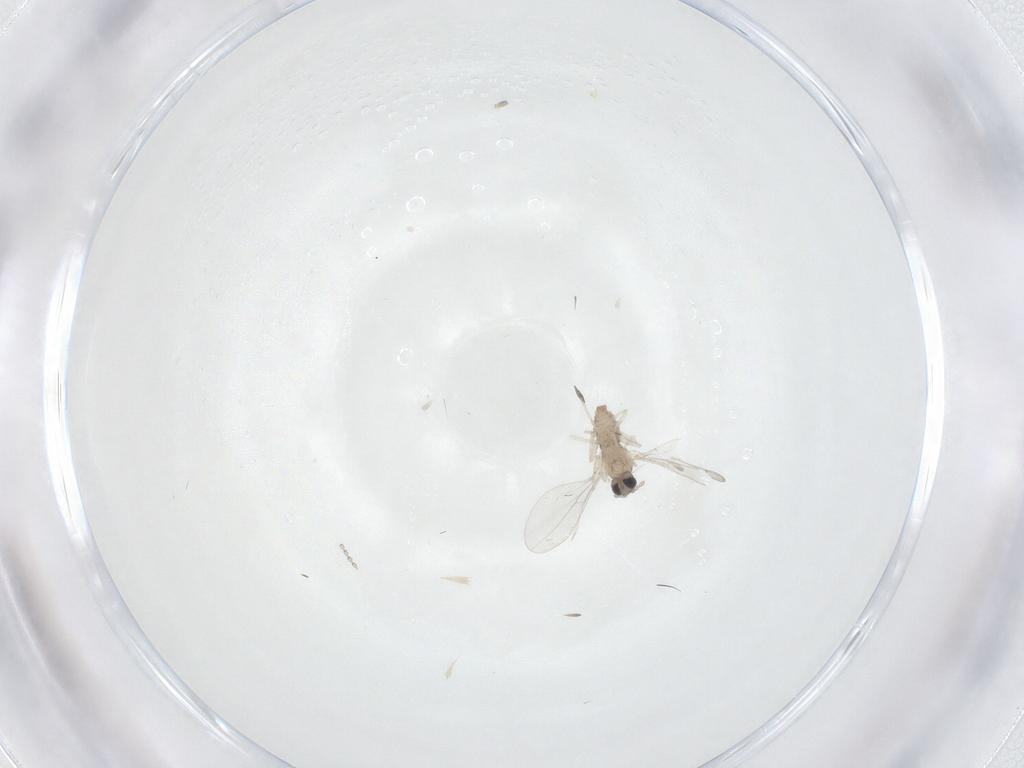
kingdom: Animalia
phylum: Arthropoda
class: Insecta
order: Diptera
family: Cecidomyiidae
